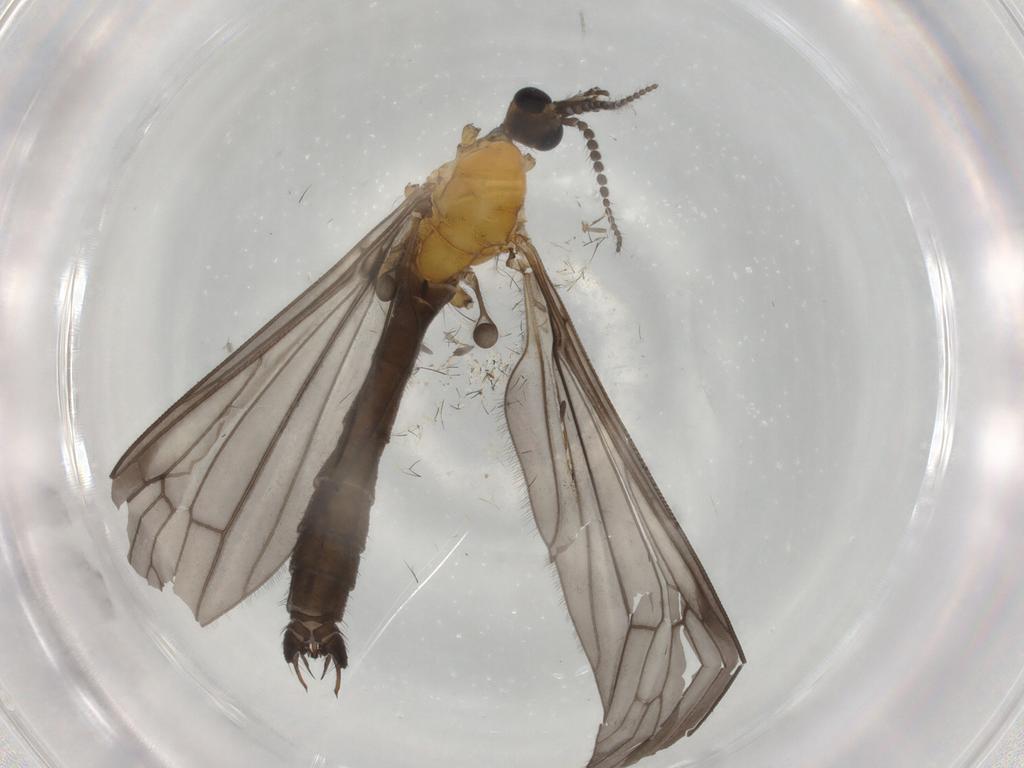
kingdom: Animalia
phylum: Arthropoda
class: Insecta
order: Diptera
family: Limoniidae
